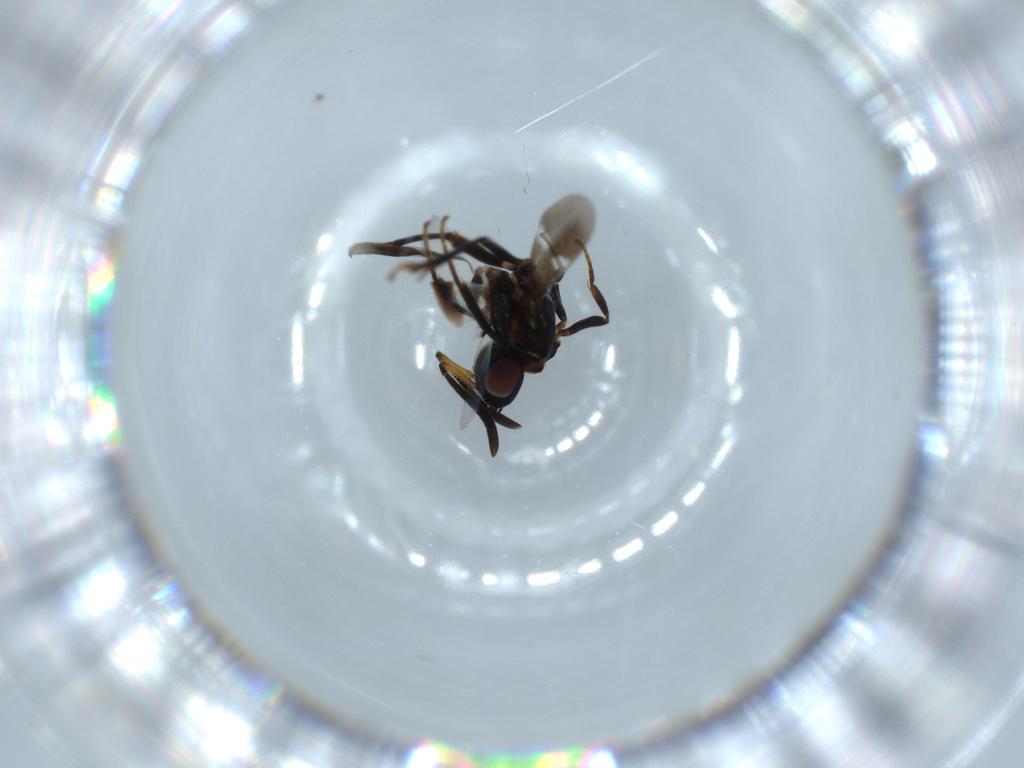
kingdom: Animalia
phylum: Arthropoda
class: Insecta
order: Hymenoptera
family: Eupelmidae
